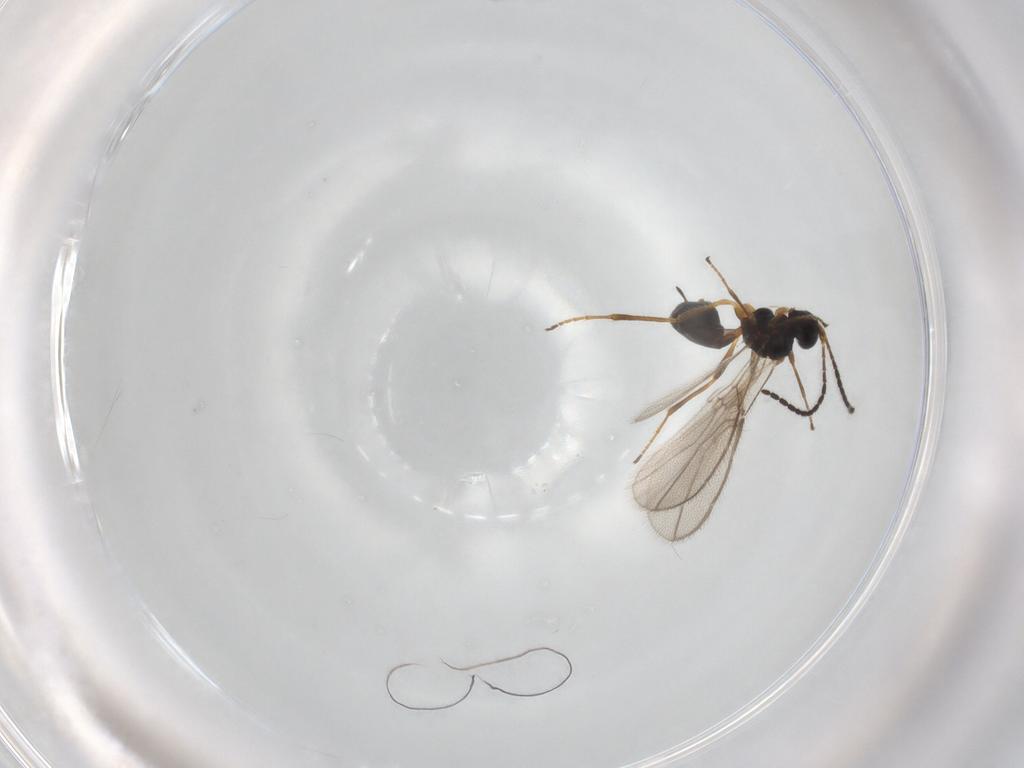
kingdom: Animalia
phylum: Arthropoda
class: Insecta
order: Hymenoptera
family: Braconidae
